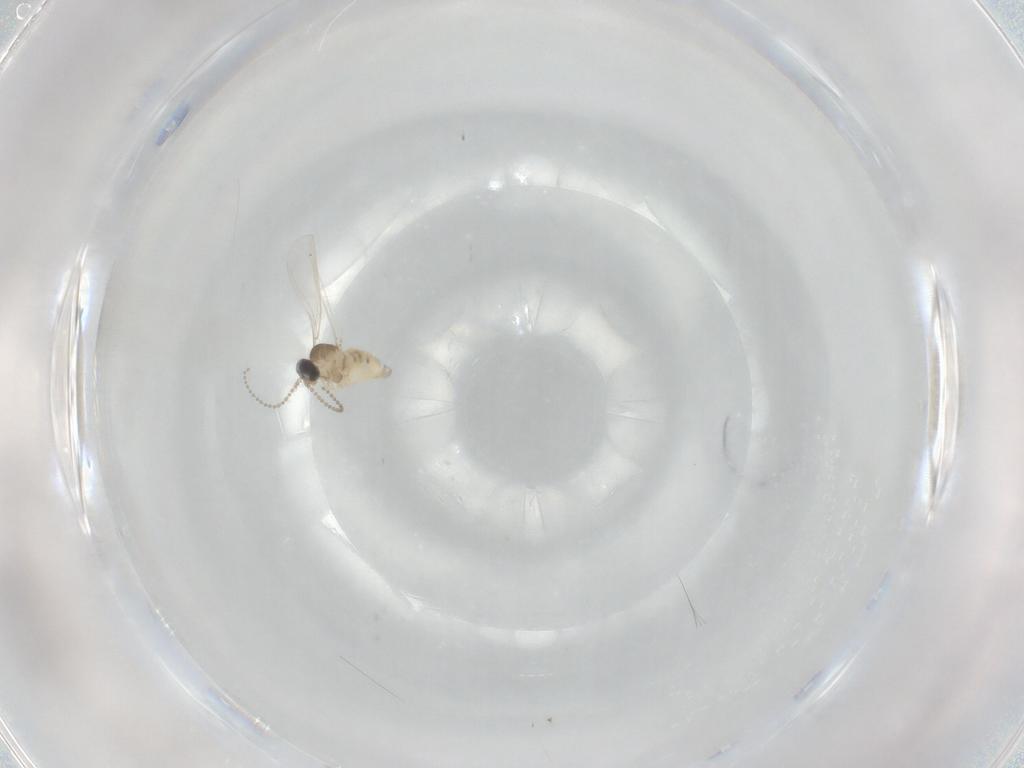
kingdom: Animalia
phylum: Arthropoda
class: Insecta
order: Diptera
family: Cecidomyiidae
